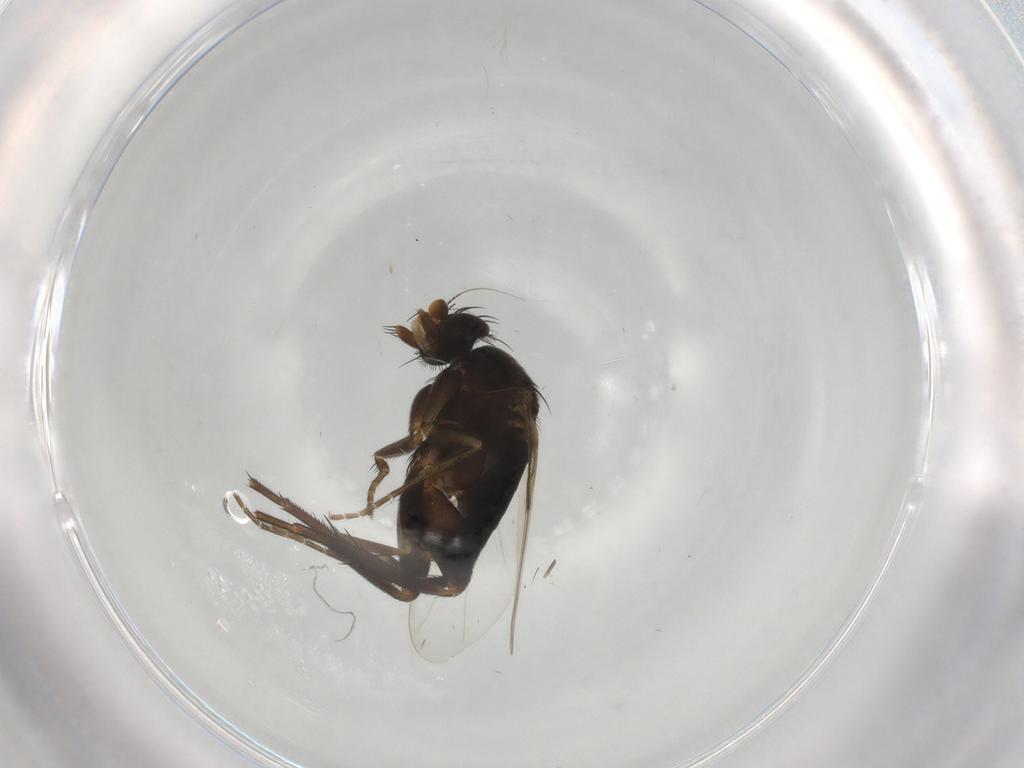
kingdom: Animalia
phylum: Arthropoda
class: Insecta
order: Diptera
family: Phoridae
